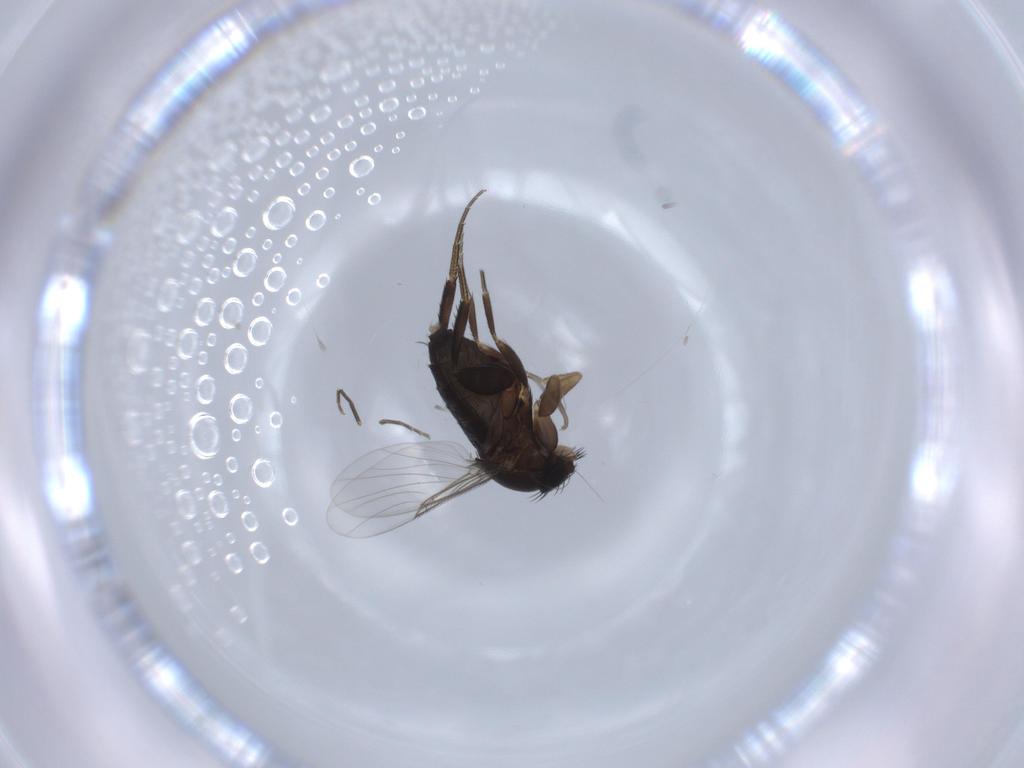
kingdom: Animalia
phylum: Arthropoda
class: Insecta
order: Diptera
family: Phoridae
